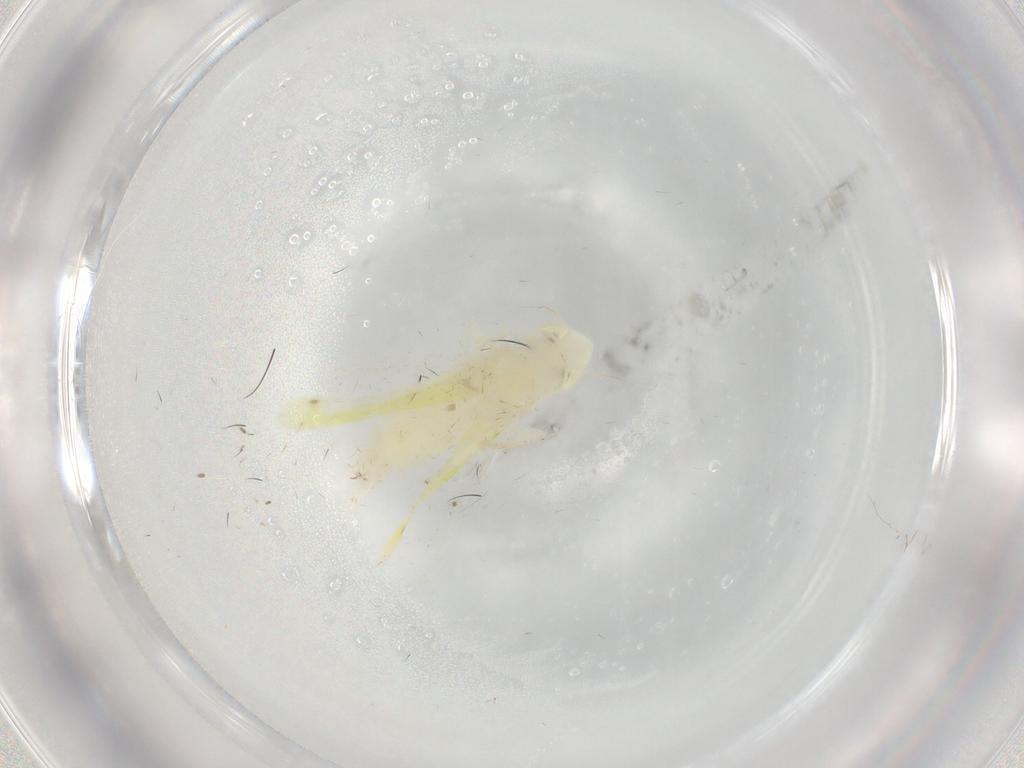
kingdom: Animalia
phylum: Arthropoda
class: Insecta
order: Hemiptera
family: Cicadellidae
